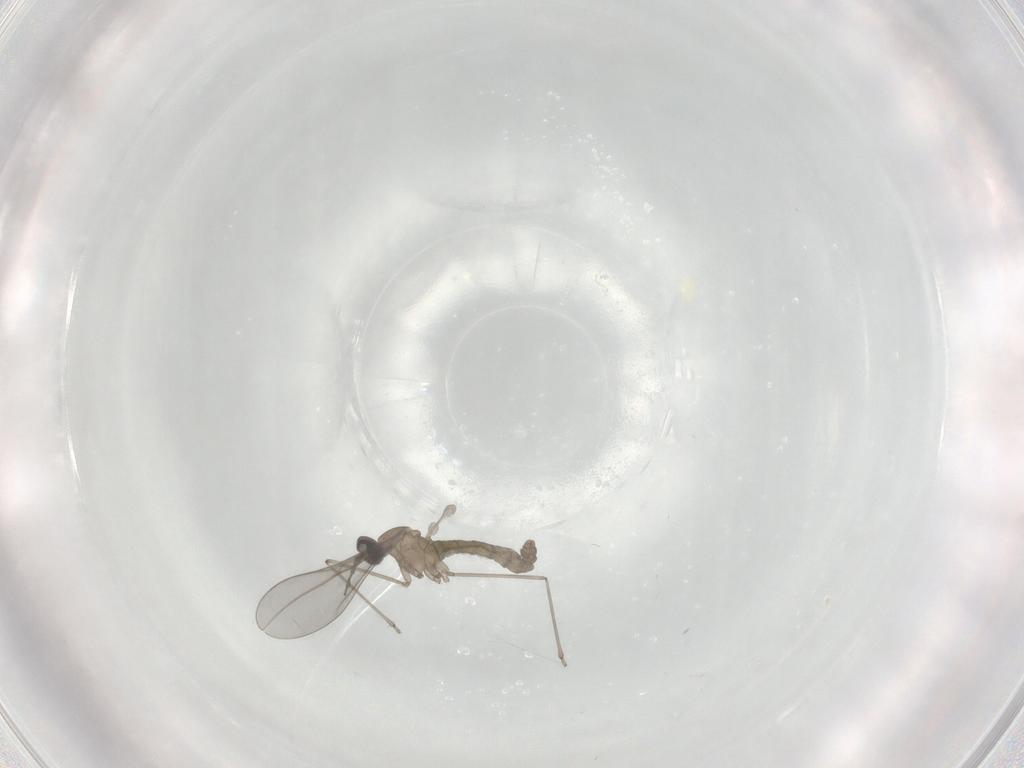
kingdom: Animalia
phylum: Arthropoda
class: Insecta
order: Diptera
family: Cecidomyiidae
